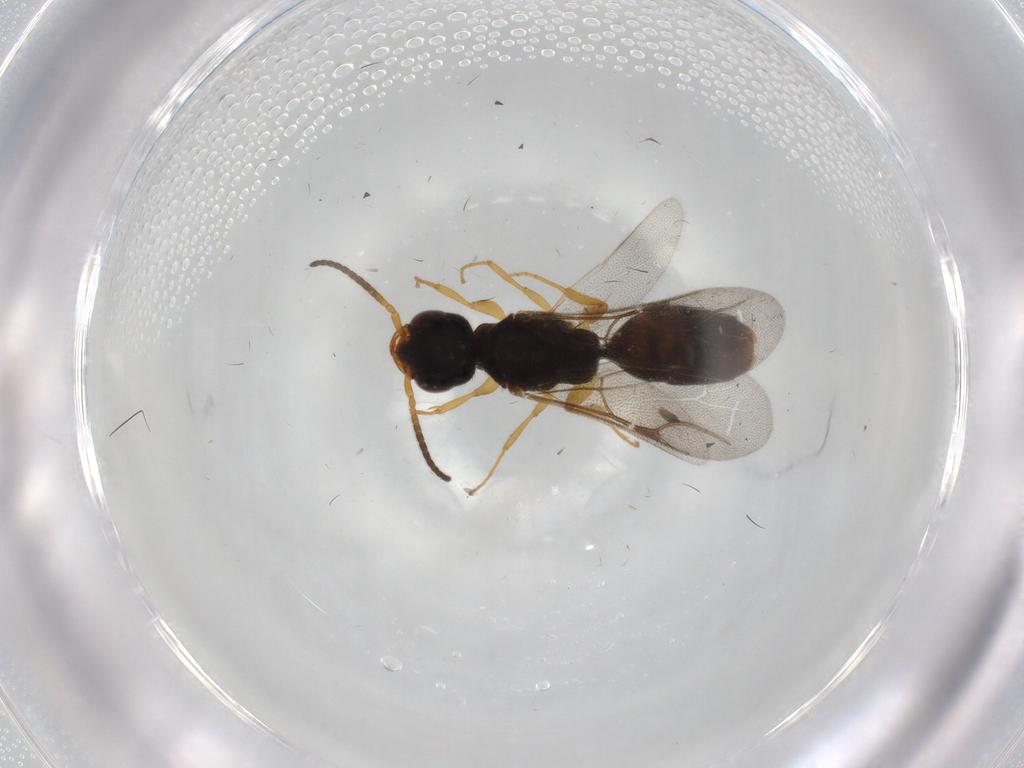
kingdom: Animalia
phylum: Arthropoda
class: Insecta
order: Hymenoptera
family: Bethylidae
